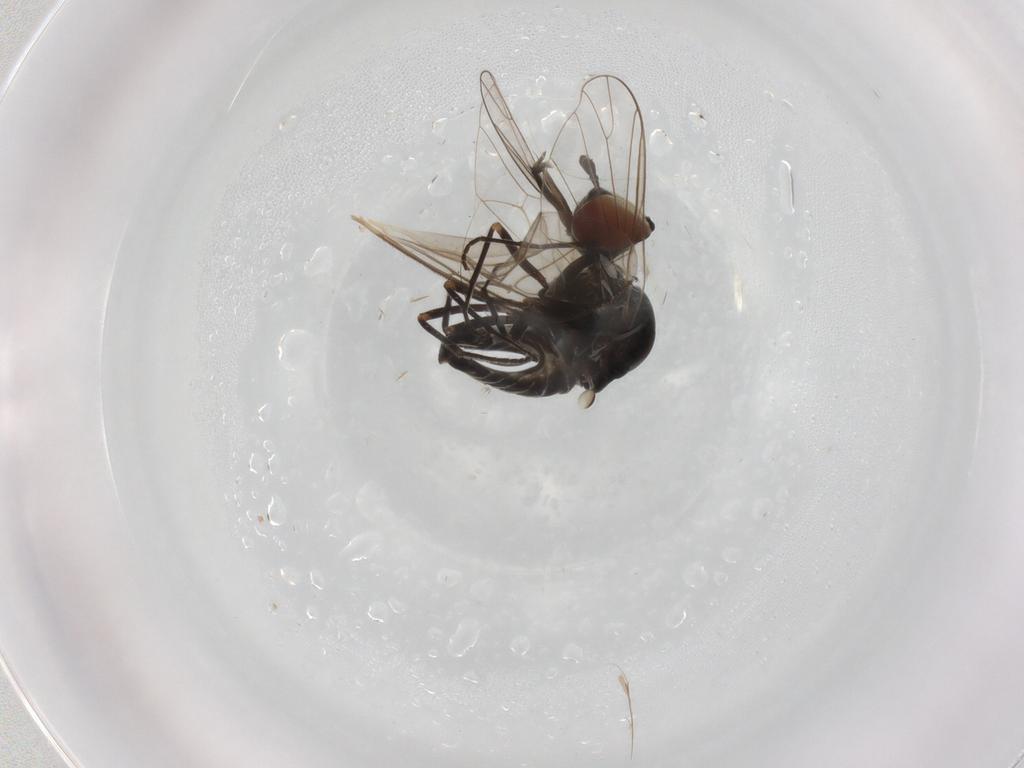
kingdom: Animalia
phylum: Arthropoda
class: Insecta
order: Diptera
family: Bombyliidae
